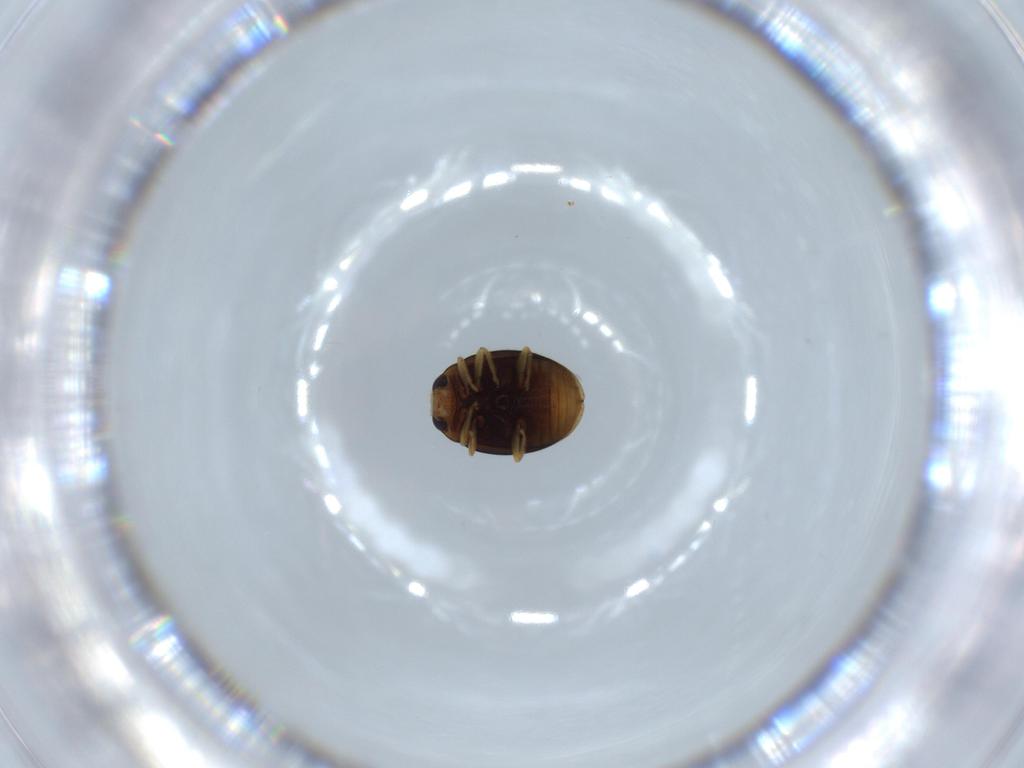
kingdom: Animalia
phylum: Arthropoda
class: Insecta
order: Coleoptera
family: Coccinellidae
